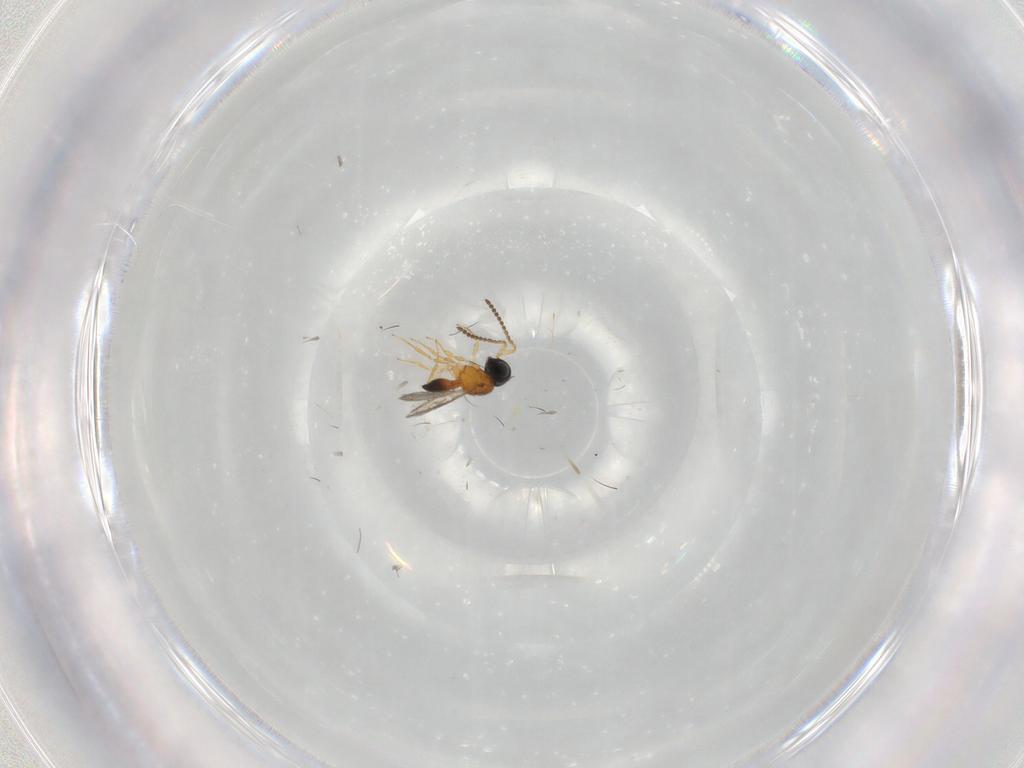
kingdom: Animalia
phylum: Arthropoda
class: Insecta
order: Hymenoptera
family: Scelionidae
